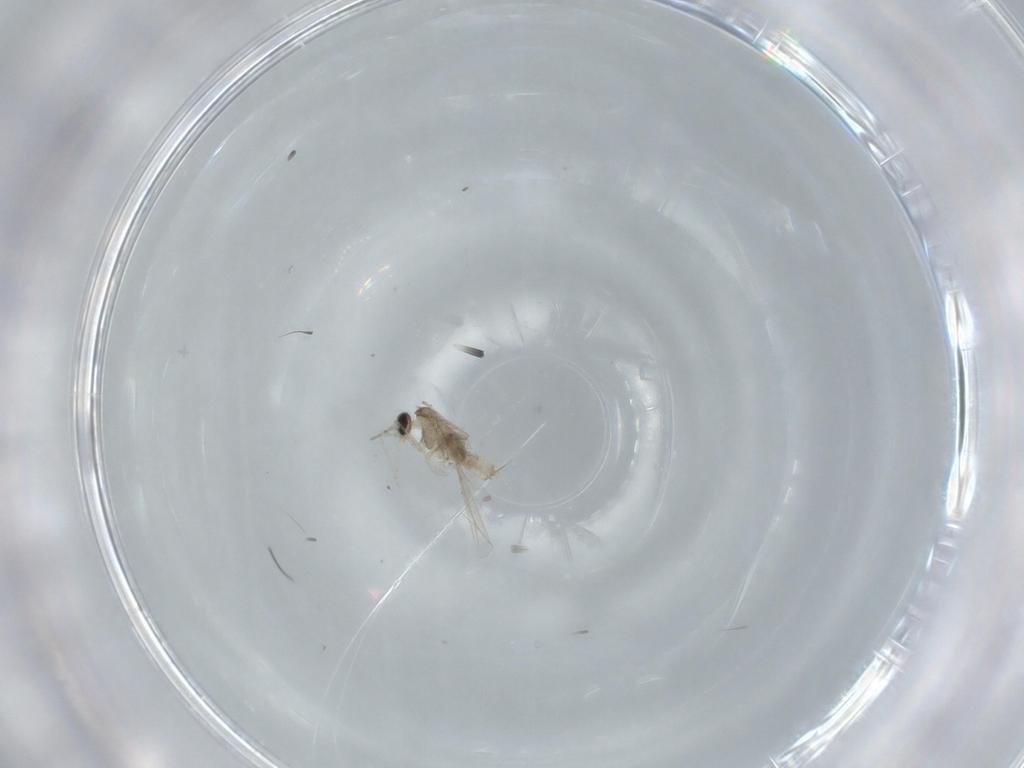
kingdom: Animalia
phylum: Arthropoda
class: Insecta
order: Diptera
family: Cecidomyiidae
